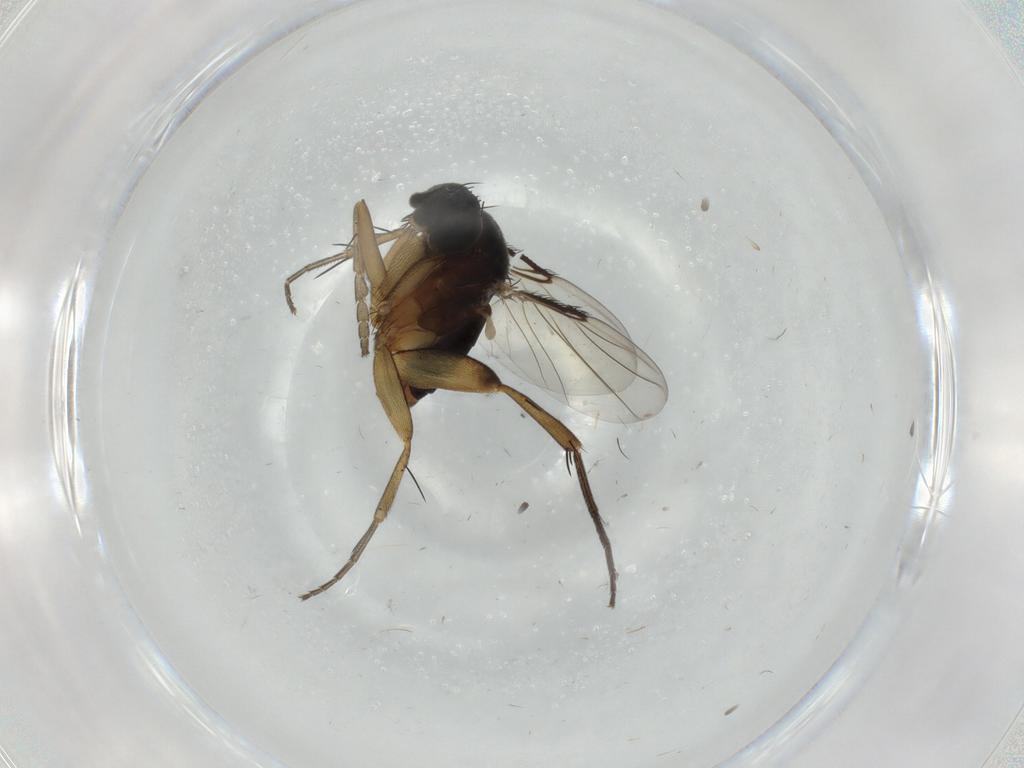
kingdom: Animalia
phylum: Arthropoda
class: Insecta
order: Diptera
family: Phoridae
